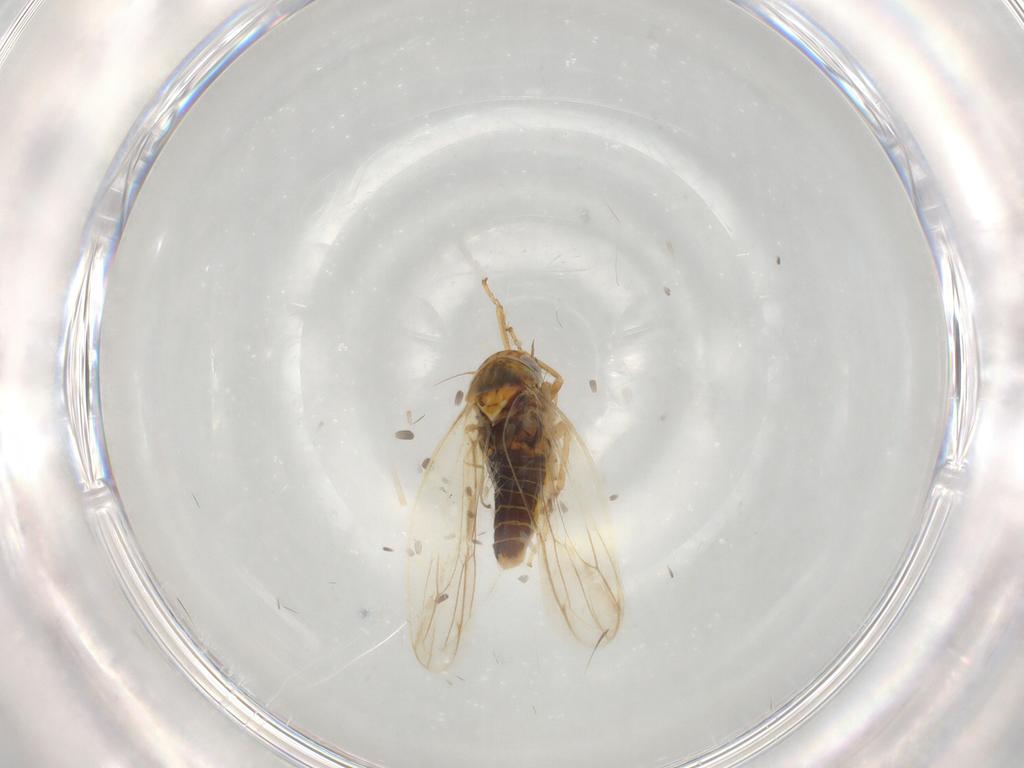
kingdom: Animalia
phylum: Arthropoda
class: Insecta
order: Hemiptera
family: Cicadellidae
